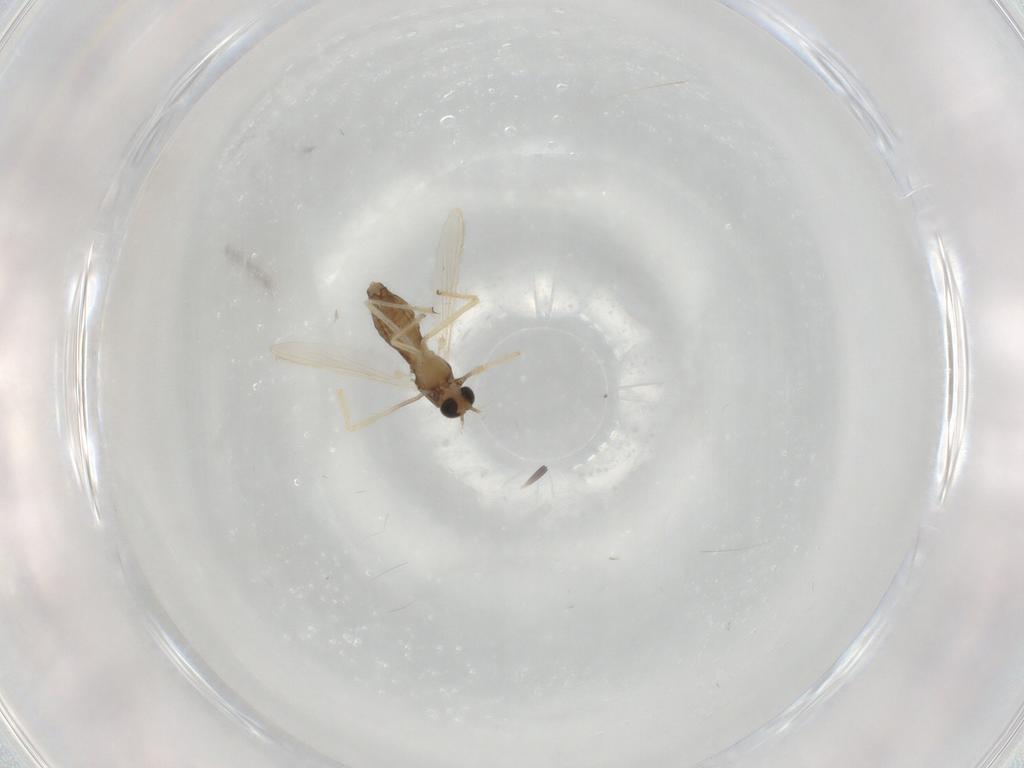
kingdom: Animalia
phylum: Arthropoda
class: Insecta
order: Diptera
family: Chironomidae
